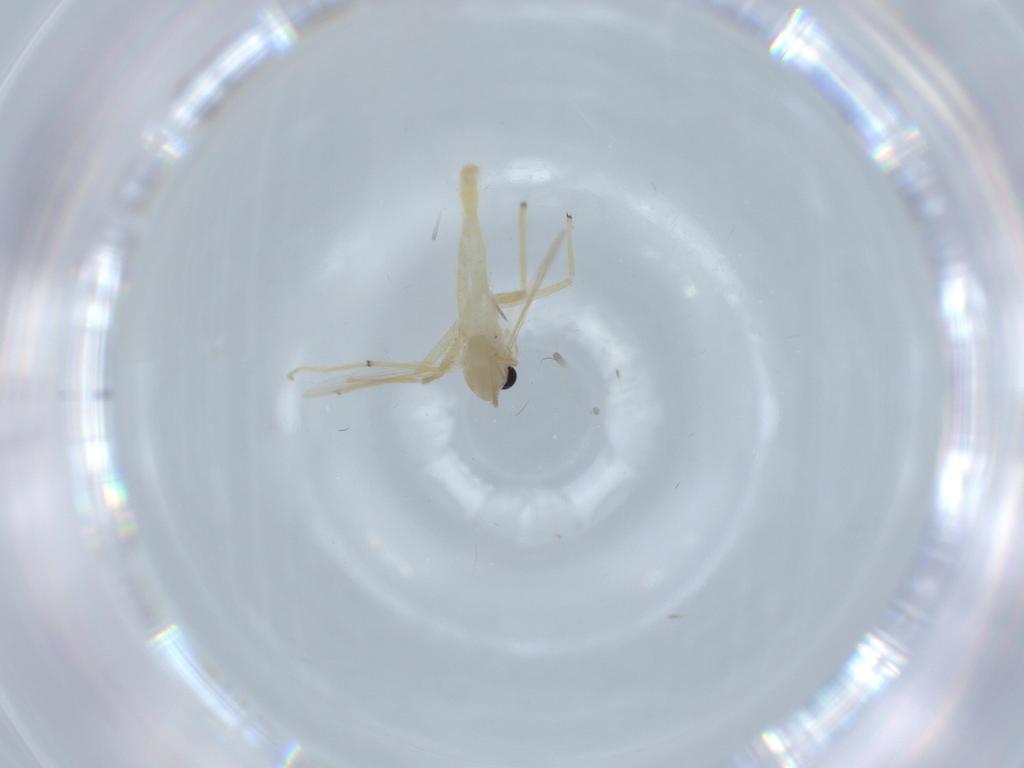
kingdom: Animalia
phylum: Arthropoda
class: Insecta
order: Diptera
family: Chironomidae
